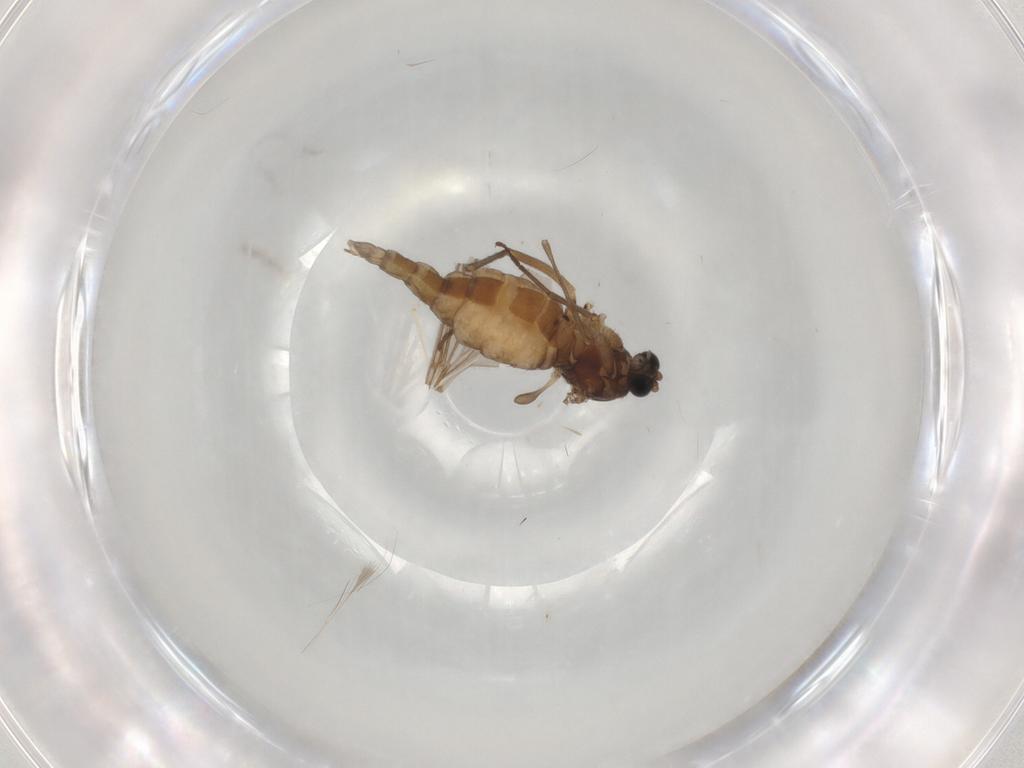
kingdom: Animalia
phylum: Arthropoda
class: Insecta
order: Diptera
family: Sciaridae
